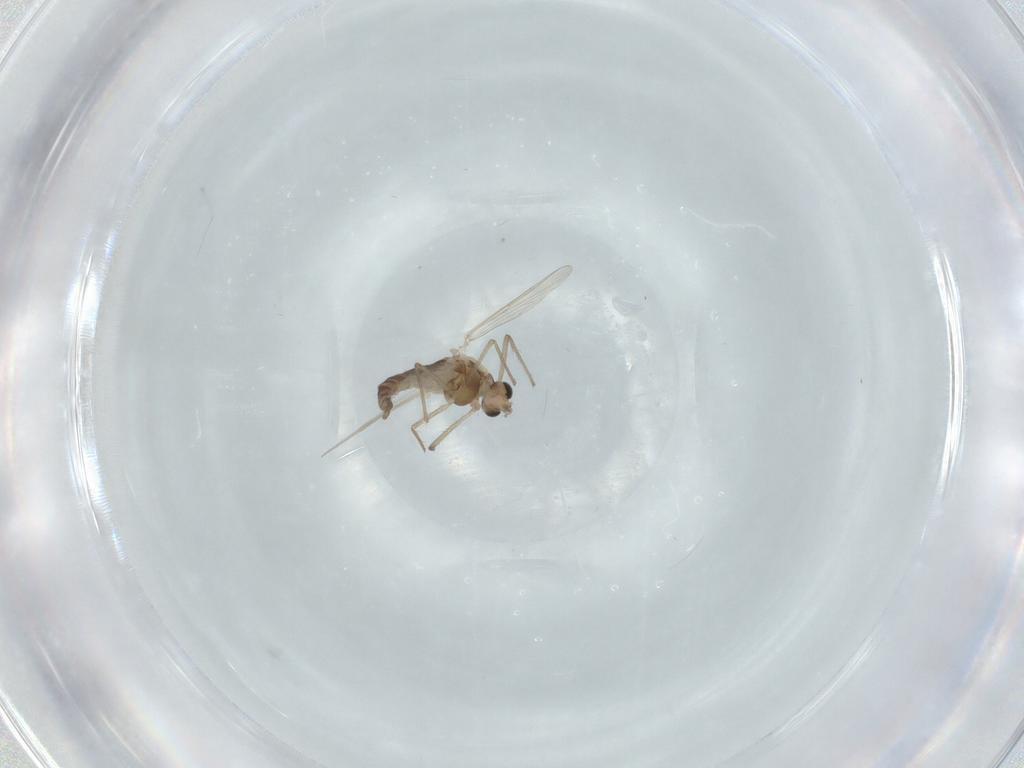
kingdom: Animalia
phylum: Arthropoda
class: Insecta
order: Diptera
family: Chironomidae
